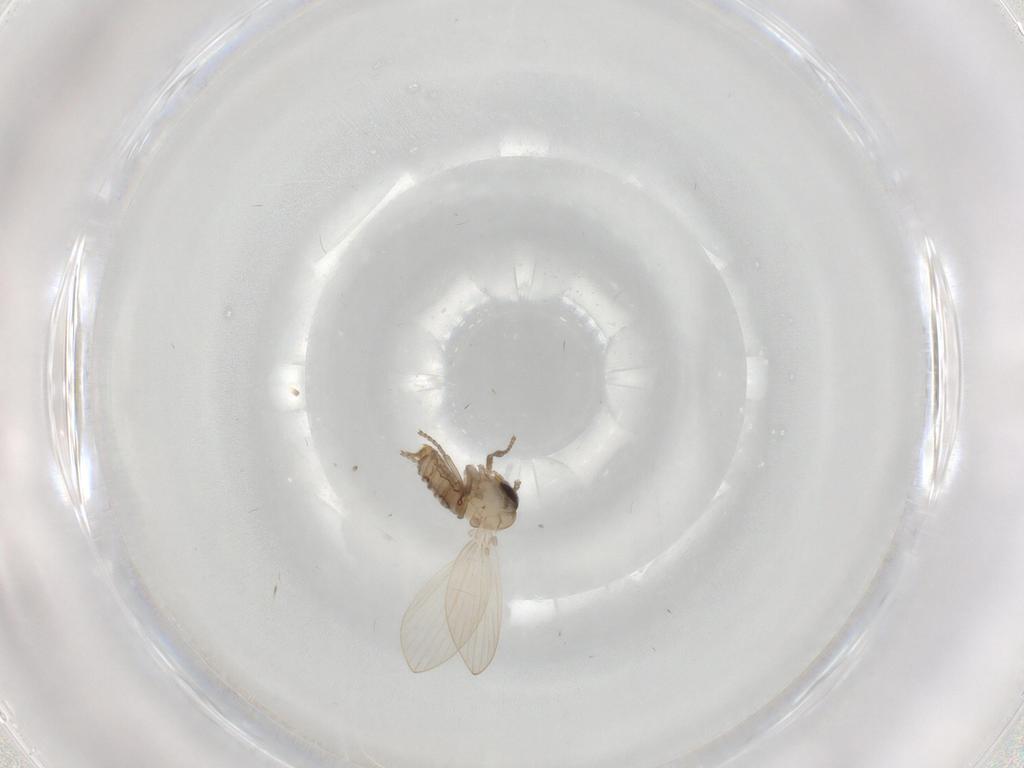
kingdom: Animalia
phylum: Arthropoda
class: Insecta
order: Diptera
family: Psychodidae
